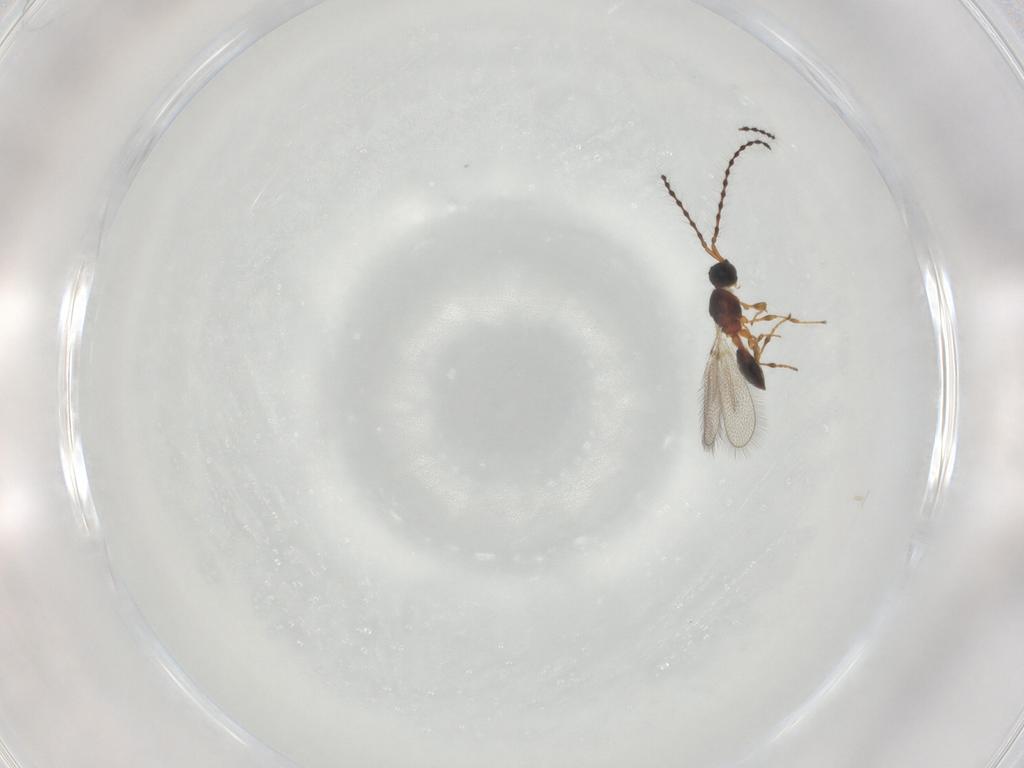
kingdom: Animalia
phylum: Arthropoda
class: Insecta
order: Hymenoptera
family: Diapriidae
